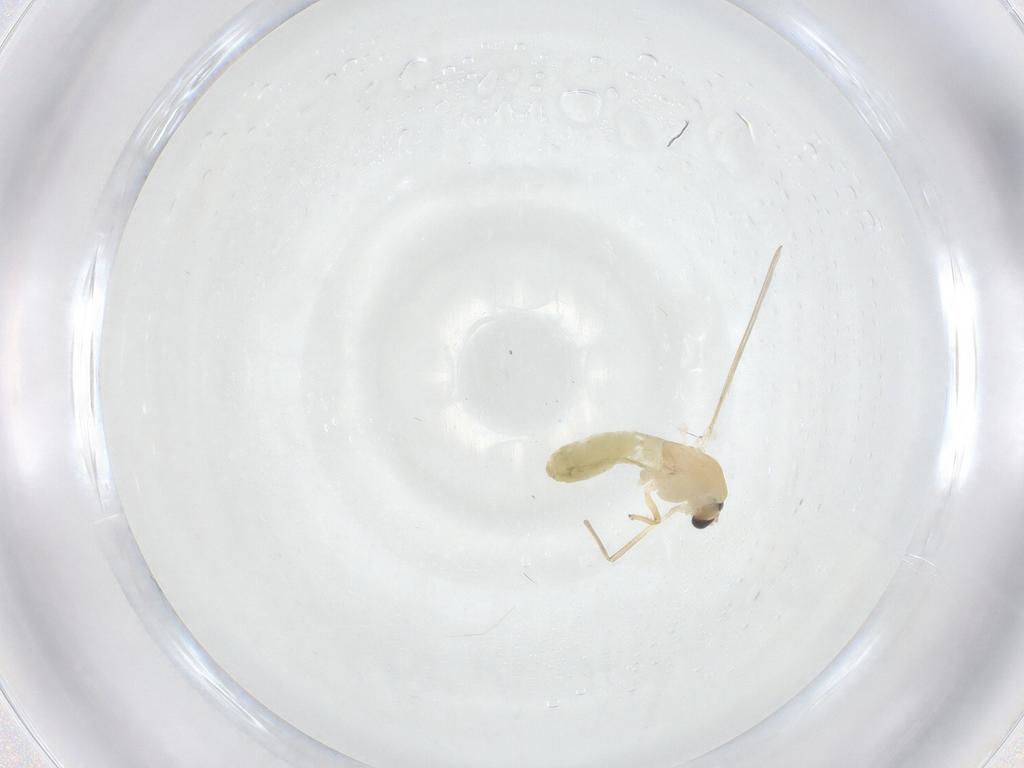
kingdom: Animalia
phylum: Arthropoda
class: Insecta
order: Diptera
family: Chironomidae
